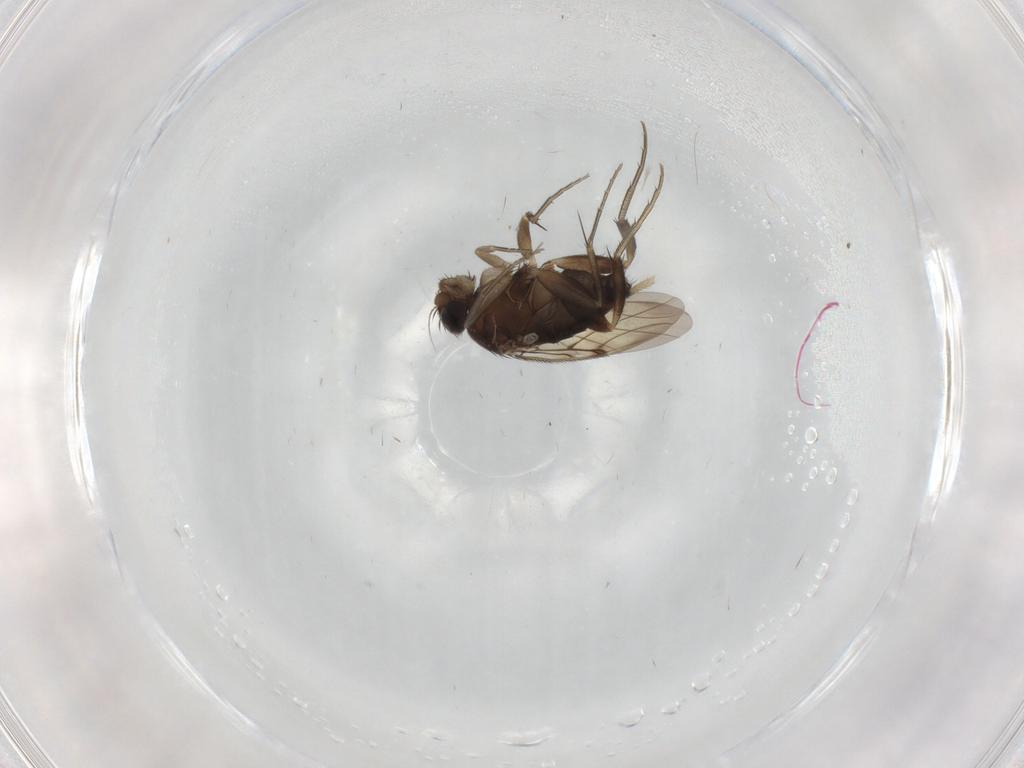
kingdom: Animalia
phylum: Arthropoda
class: Insecta
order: Diptera
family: Phoridae
